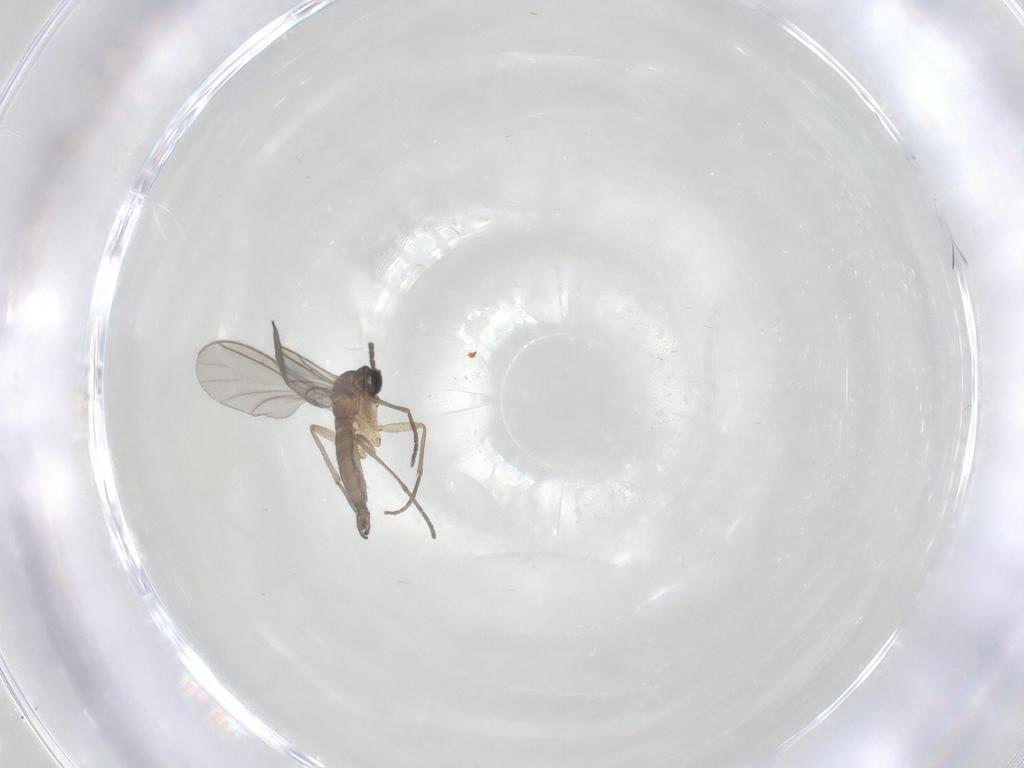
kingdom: Animalia
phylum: Arthropoda
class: Insecta
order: Diptera
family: Sciaridae
